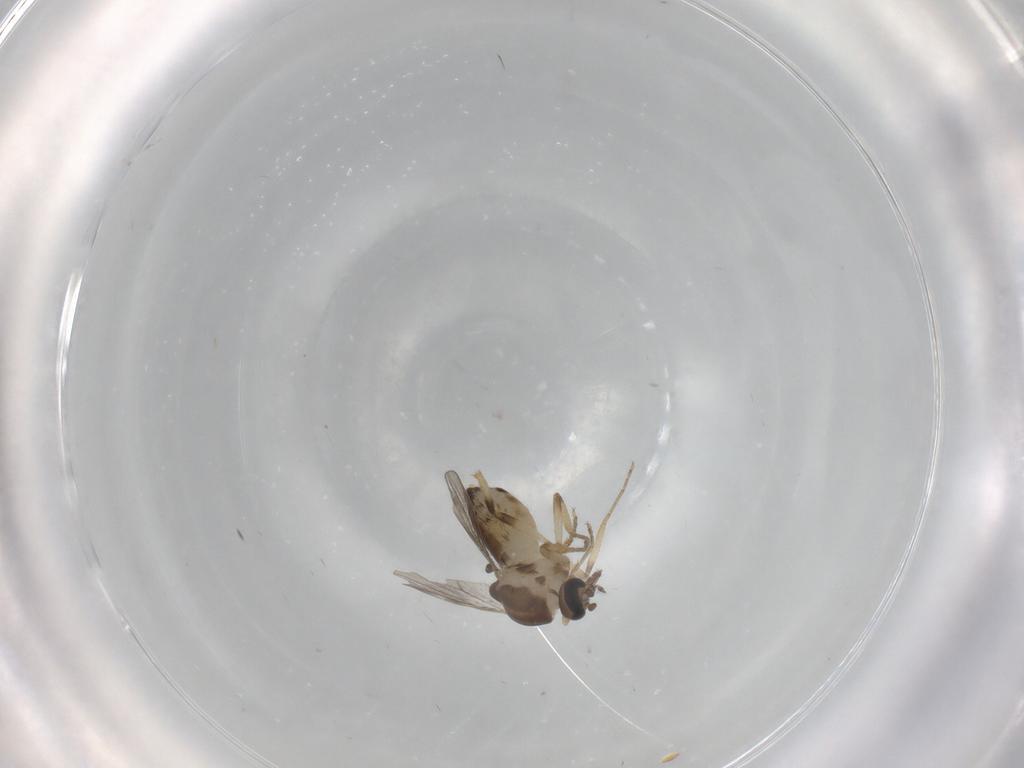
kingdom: Animalia
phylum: Arthropoda
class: Insecta
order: Diptera
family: Ceratopogonidae
